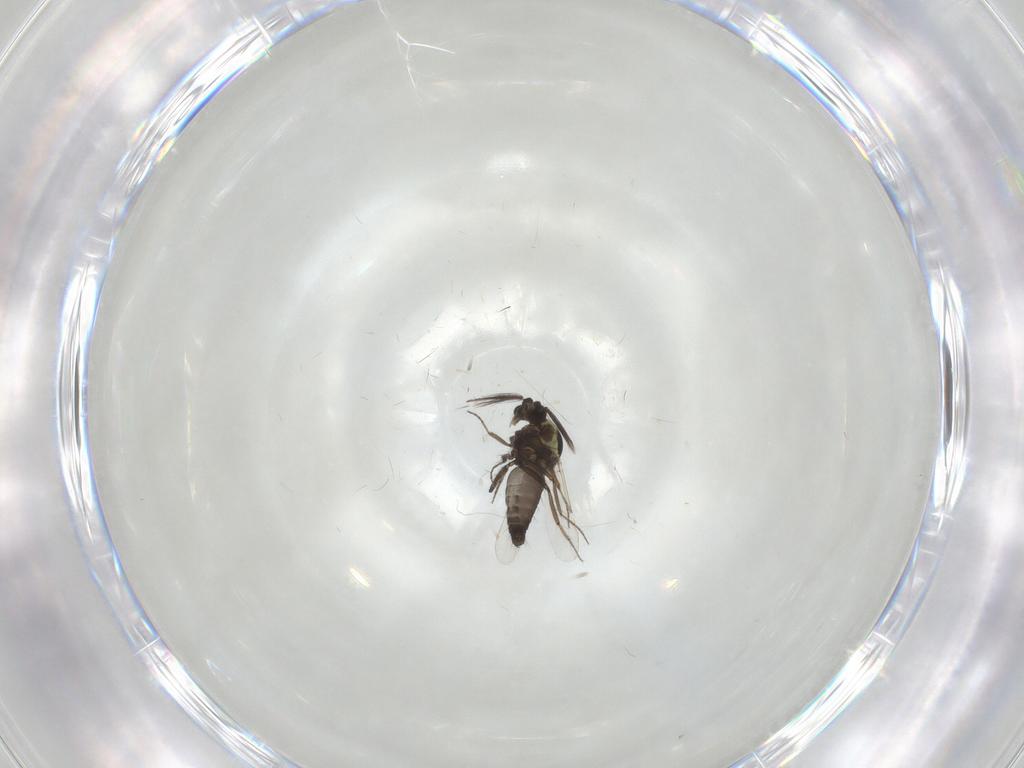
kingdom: Animalia
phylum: Arthropoda
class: Insecta
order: Diptera
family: Ceratopogonidae
